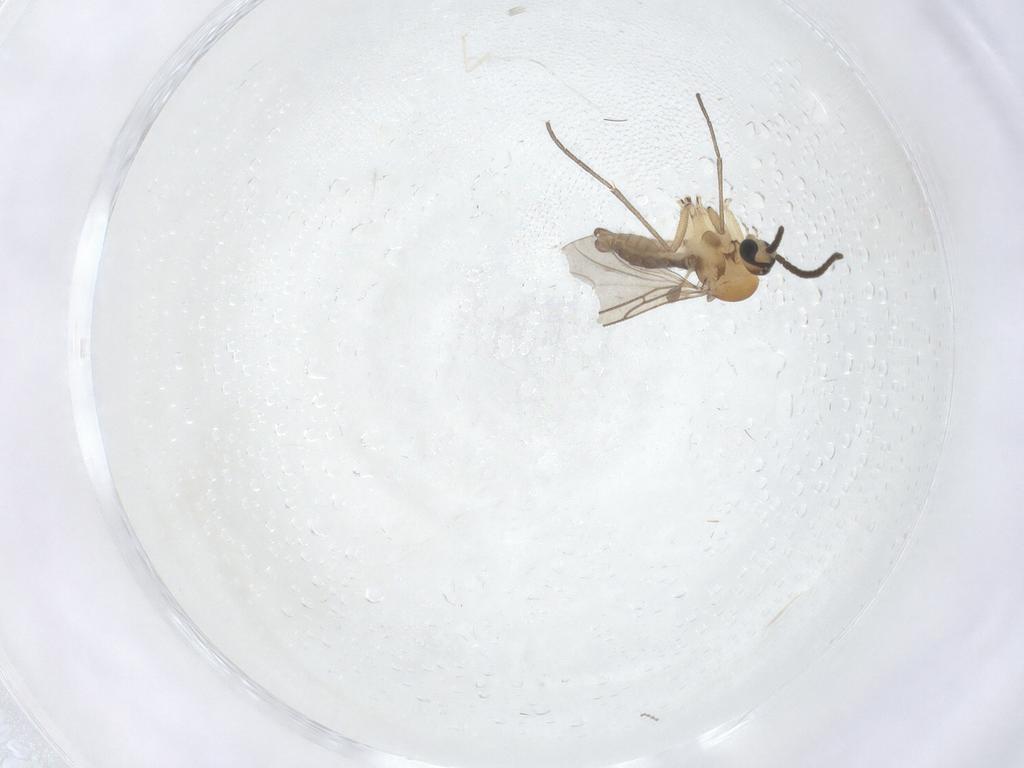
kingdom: Animalia
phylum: Arthropoda
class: Insecta
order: Diptera
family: Sciaridae
